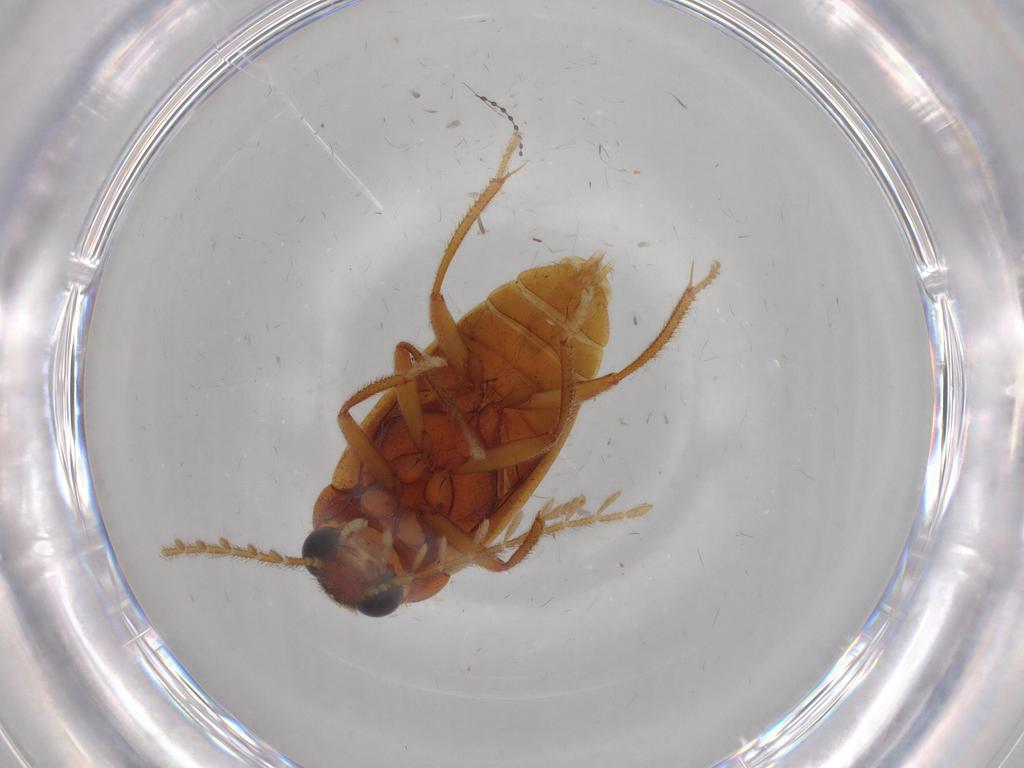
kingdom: Animalia
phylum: Arthropoda
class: Insecta
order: Coleoptera
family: Ptilodactylidae
